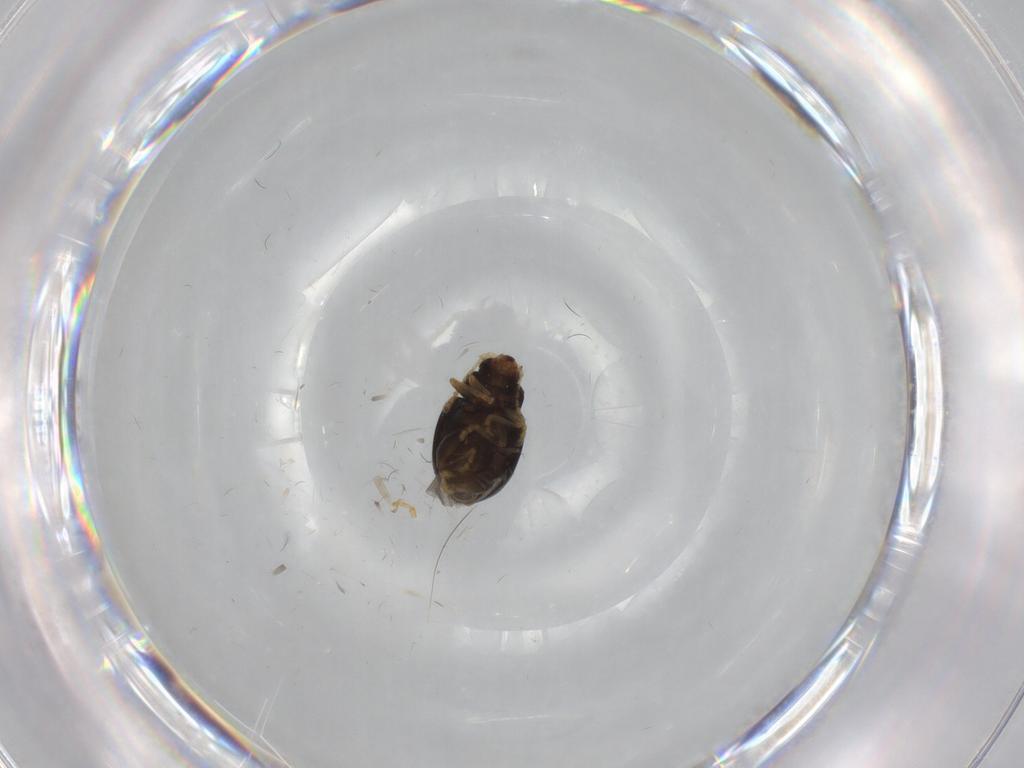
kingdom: Animalia
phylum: Arthropoda
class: Insecta
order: Coleoptera
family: Chrysomelidae
